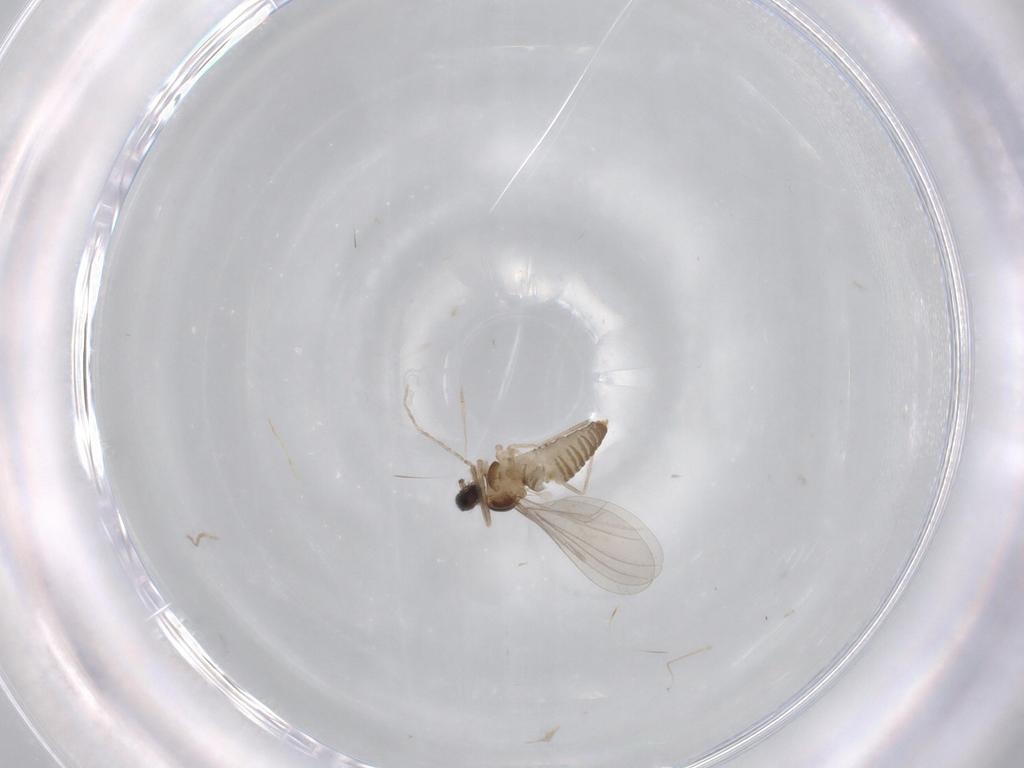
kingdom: Animalia
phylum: Arthropoda
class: Insecta
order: Diptera
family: Cecidomyiidae
